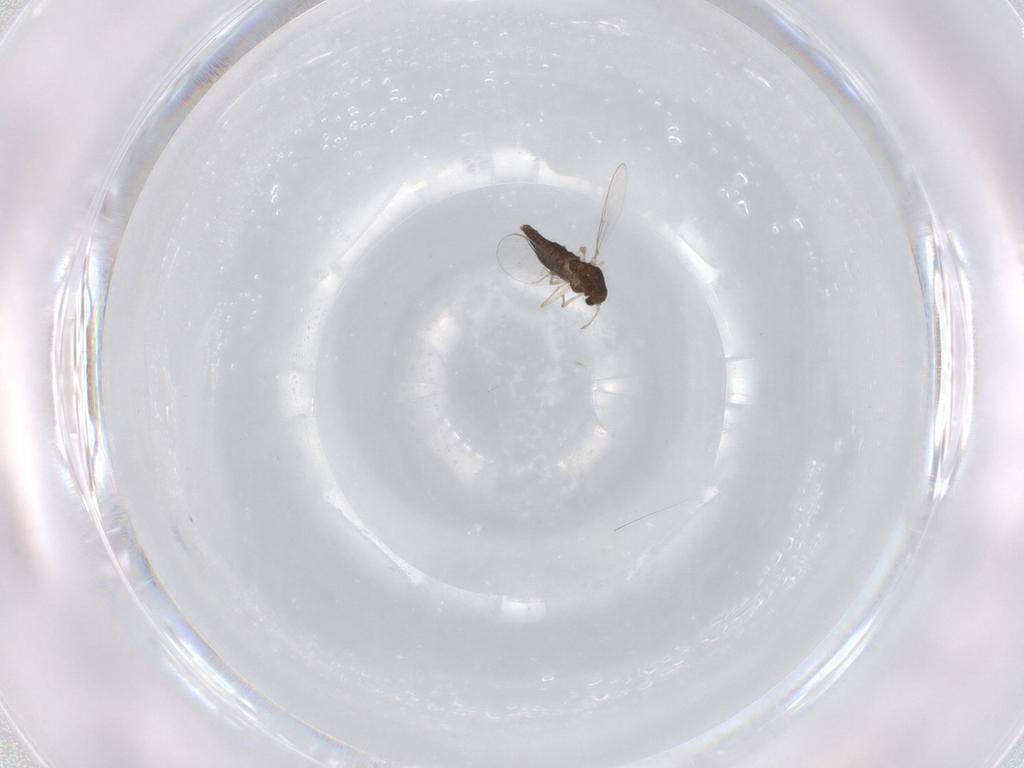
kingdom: Animalia
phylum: Arthropoda
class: Insecta
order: Diptera
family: Chironomidae
